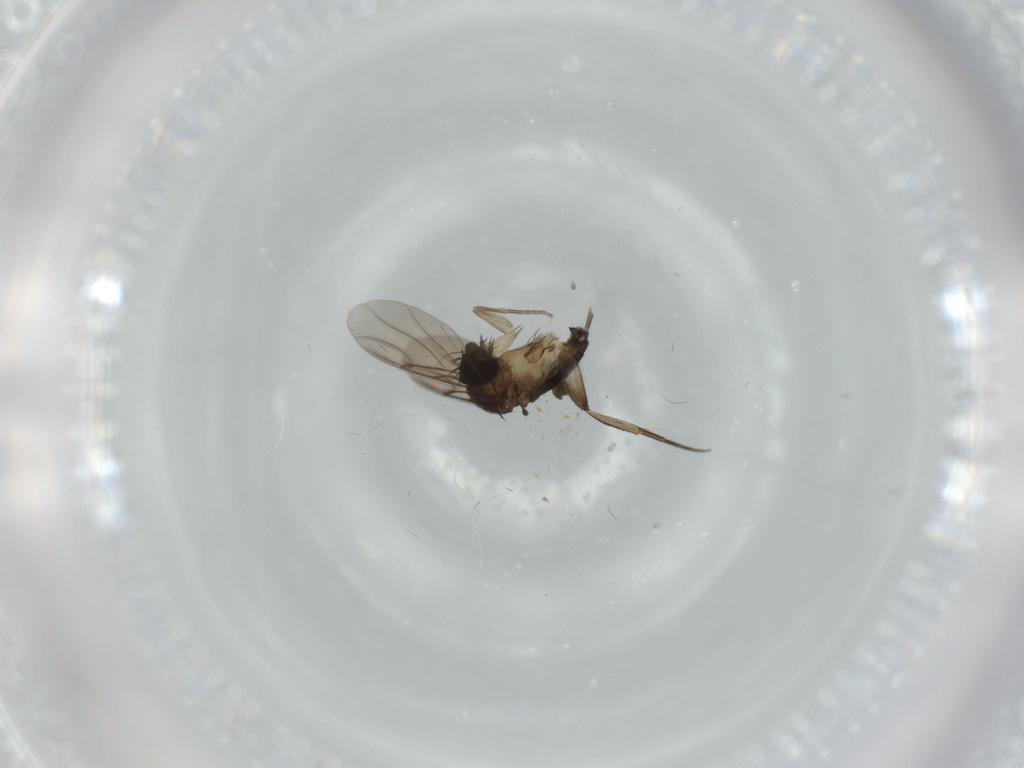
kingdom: Animalia
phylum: Arthropoda
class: Insecta
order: Diptera
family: Phoridae
